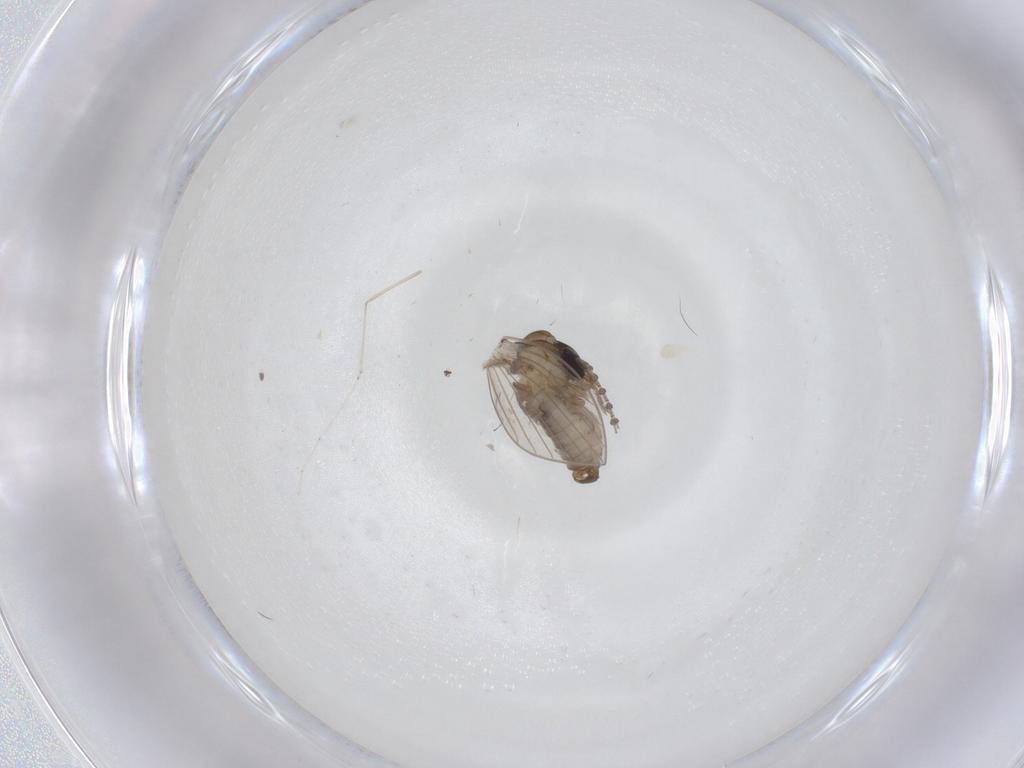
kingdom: Animalia
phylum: Arthropoda
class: Insecta
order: Diptera
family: Psychodidae
